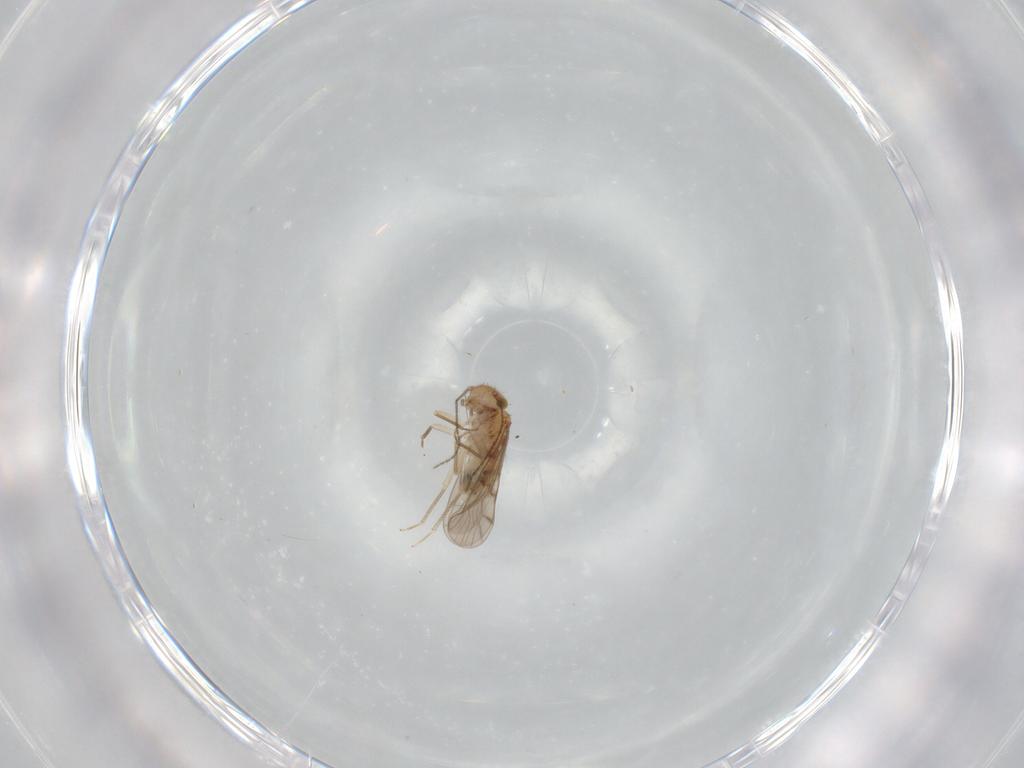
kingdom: Animalia
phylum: Arthropoda
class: Insecta
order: Psocodea
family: Ectopsocidae
